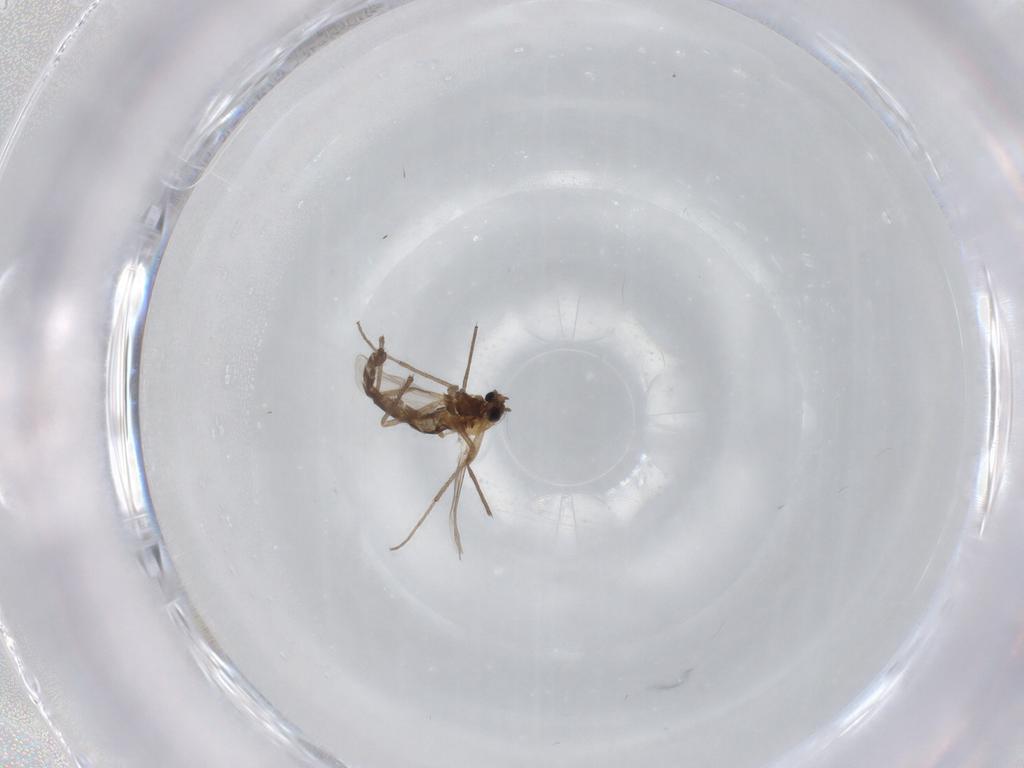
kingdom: Animalia
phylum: Arthropoda
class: Insecta
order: Diptera
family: Chironomidae
